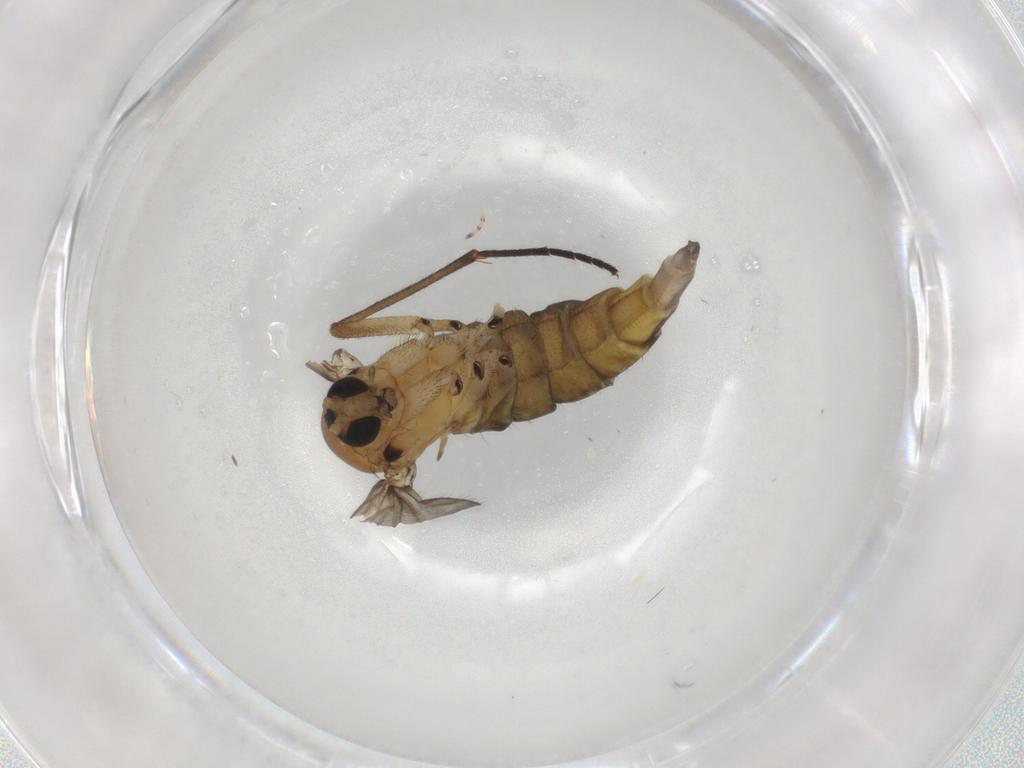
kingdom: Animalia
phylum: Arthropoda
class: Insecta
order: Diptera
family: Sciaridae
